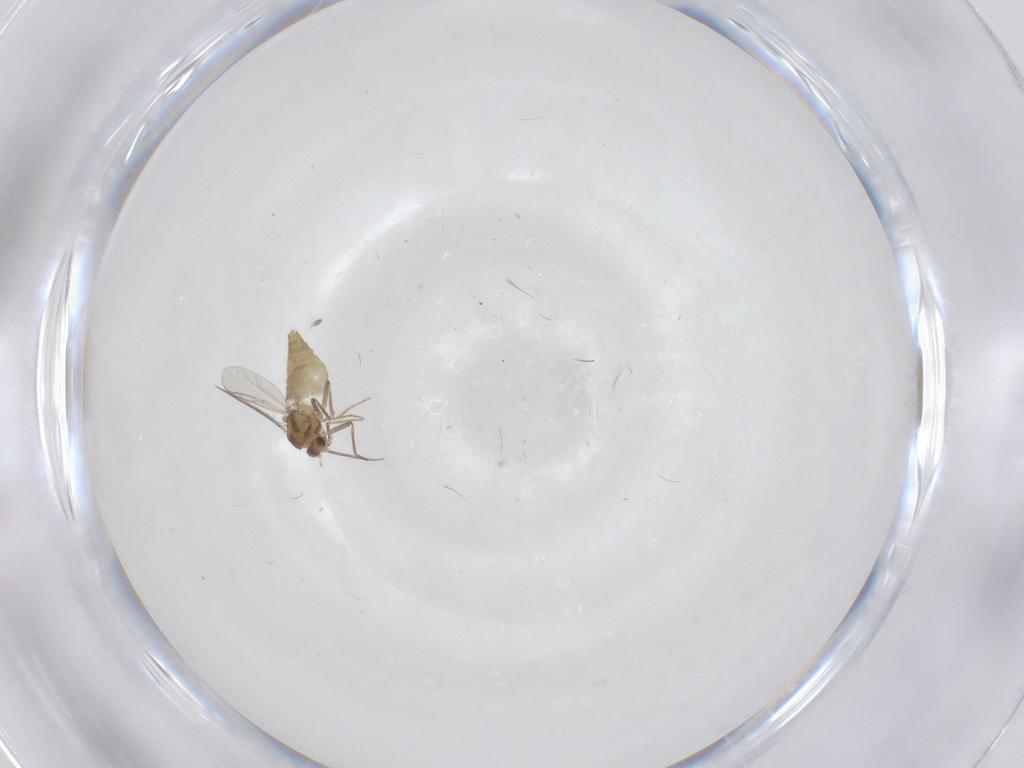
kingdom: Animalia
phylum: Arthropoda
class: Insecta
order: Diptera
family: Chironomidae
